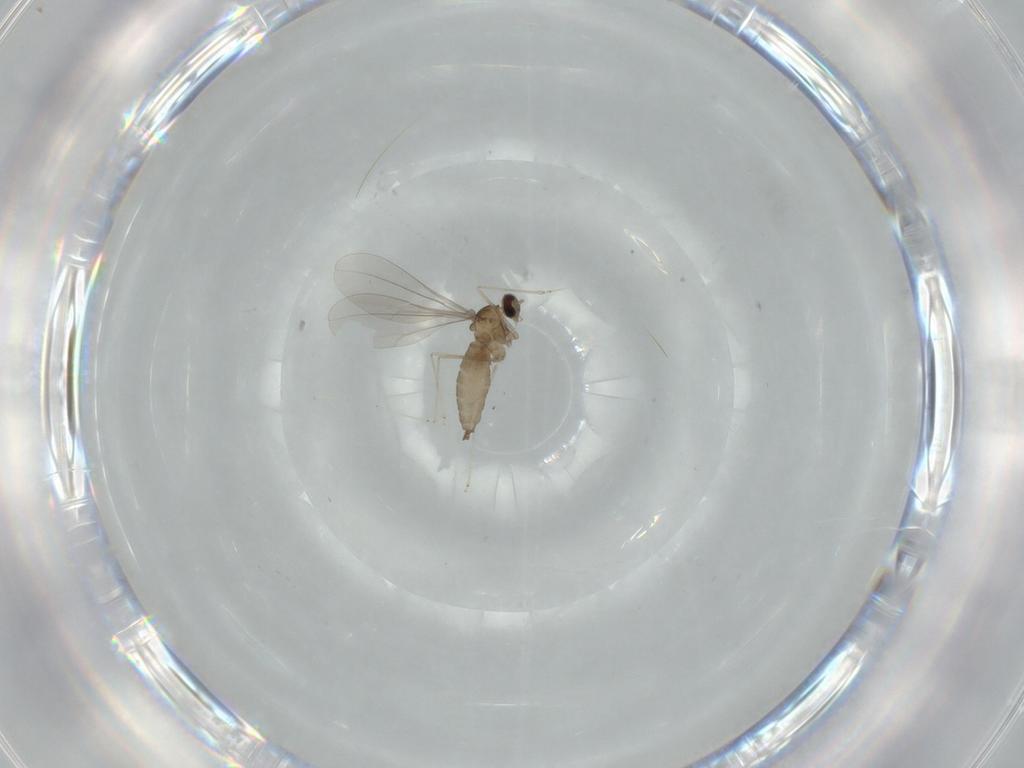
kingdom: Animalia
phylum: Arthropoda
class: Insecta
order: Diptera
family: Cecidomyiidae
